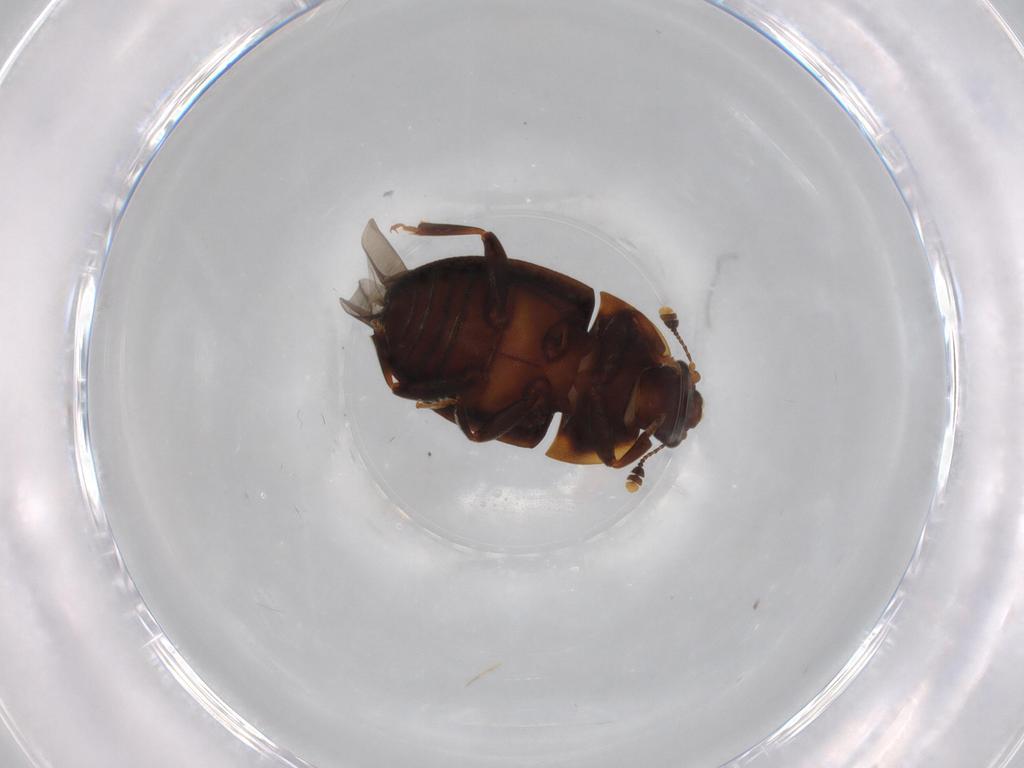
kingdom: Animalia
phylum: Arthropoda
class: Insecta
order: Coleoptera
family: Nitidulidae
